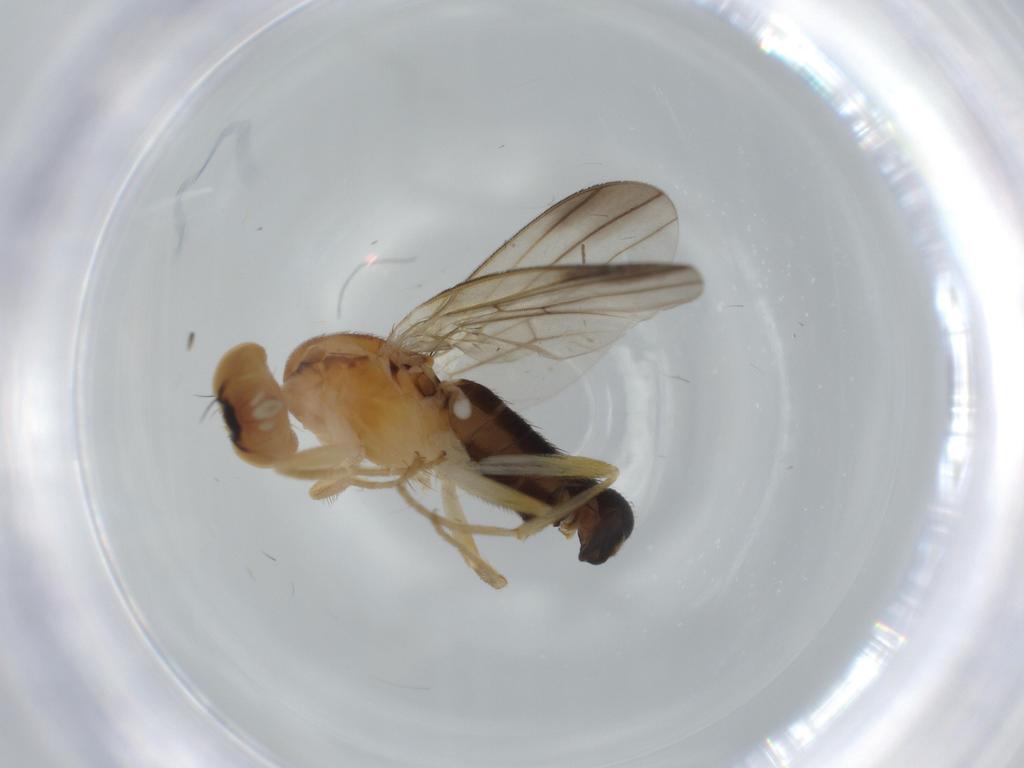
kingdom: Animalia
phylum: Arthropoda
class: Insecta
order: Diptera
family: Clusiidae
